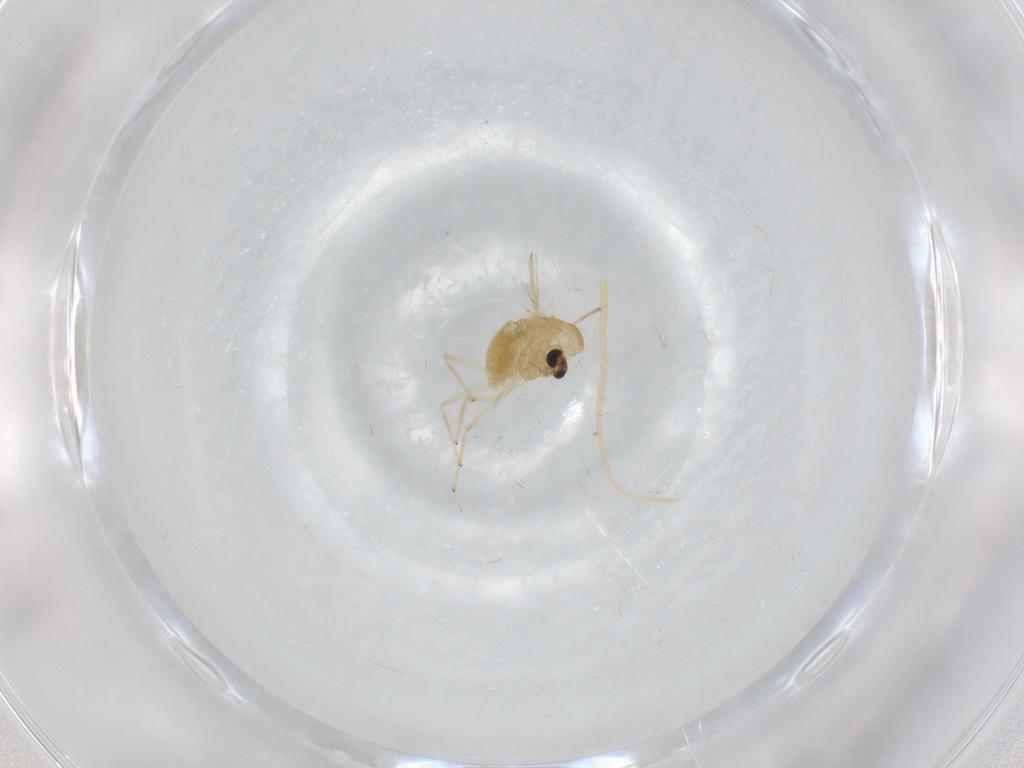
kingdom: Animalia
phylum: Arthropoda
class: Insecta
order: Diptera
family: Chironomidae
